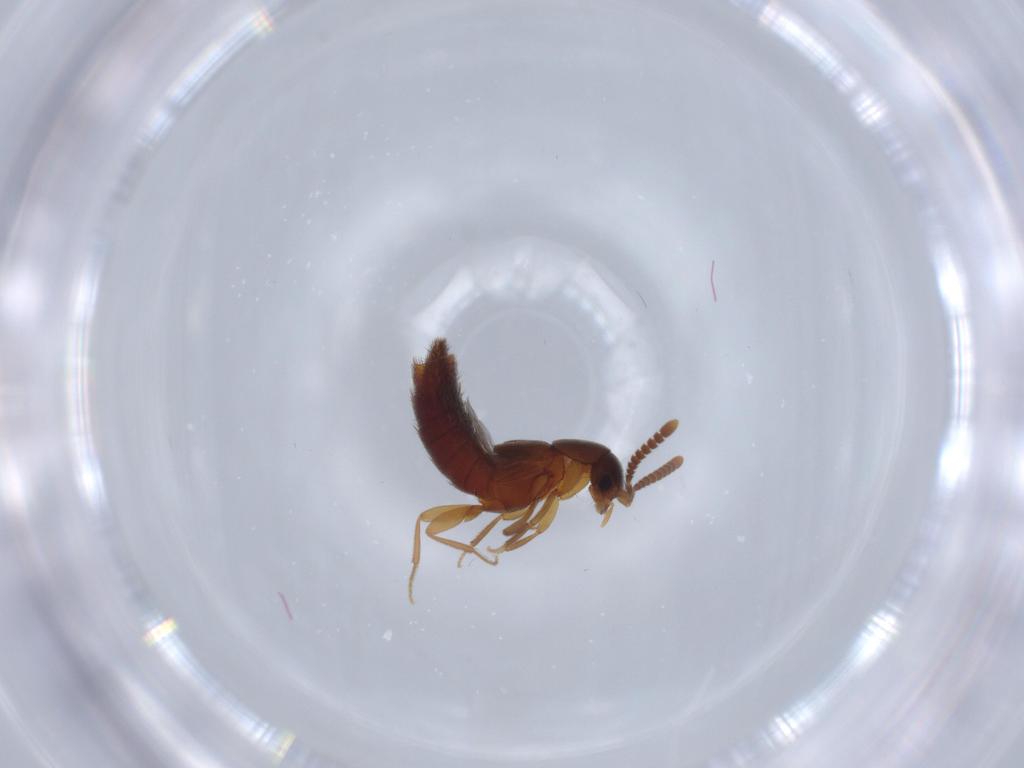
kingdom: Animalia
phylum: Arthropoda
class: Insecta
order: Coleoptera
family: Staphylinidae
